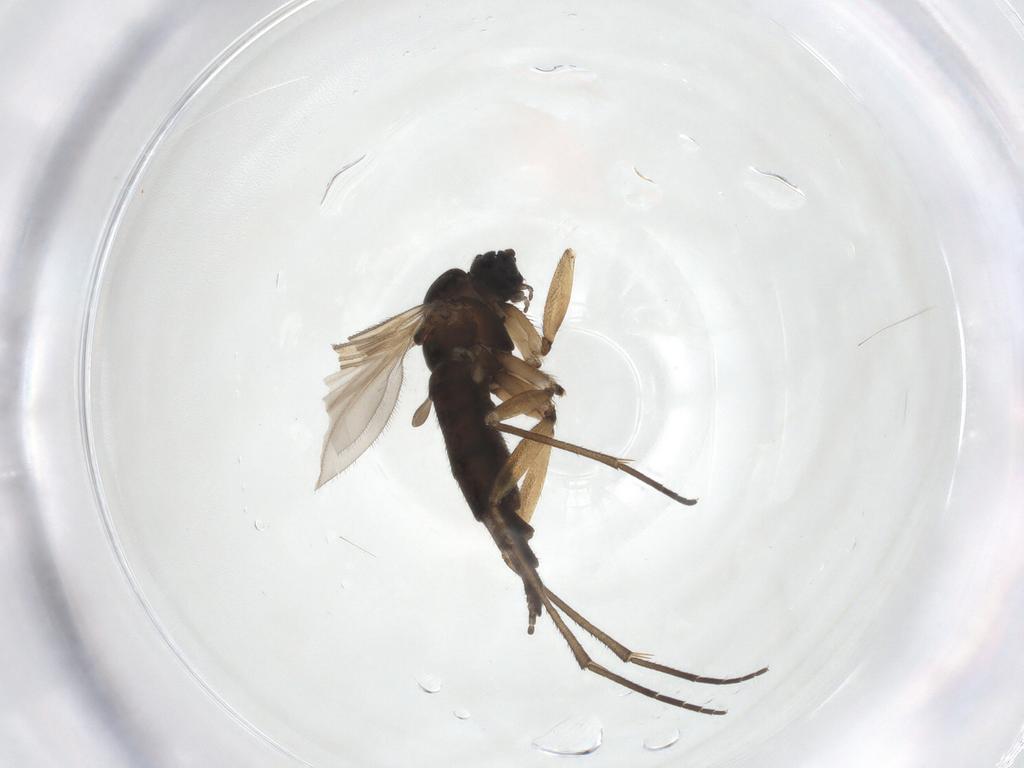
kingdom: Animalia
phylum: Arthropoda
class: Insecta
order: Diptera
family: Sciaridae
